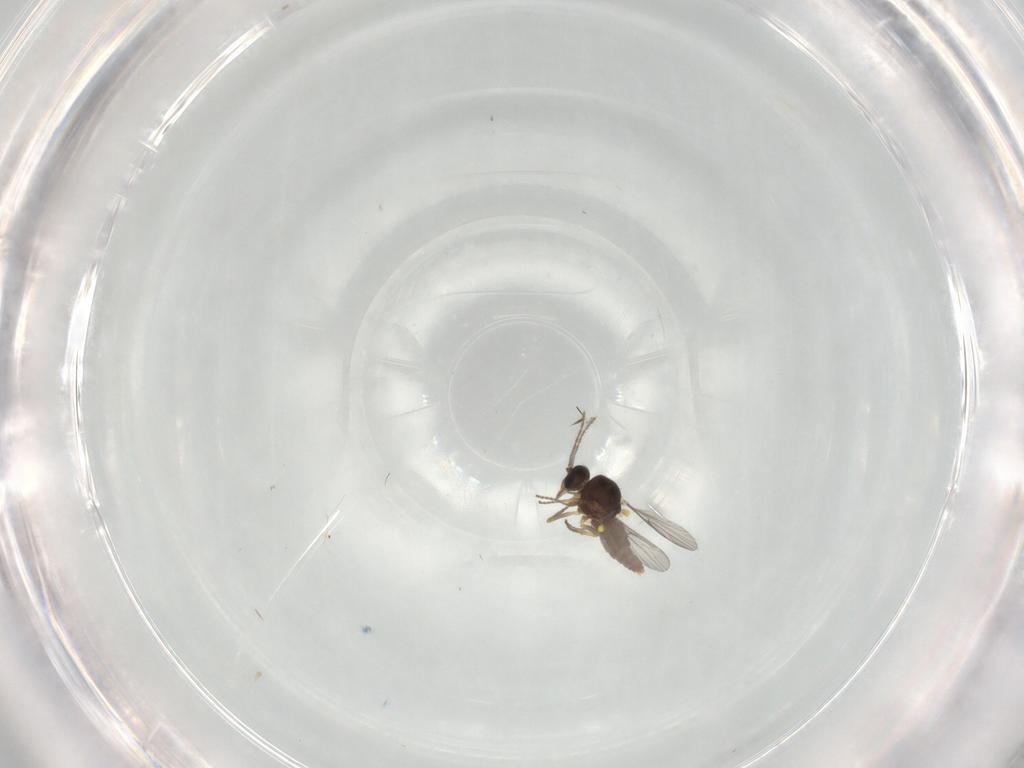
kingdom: Animalia
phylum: Arthropoda
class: Insecta
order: Diptera
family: Ceratopogonidae
